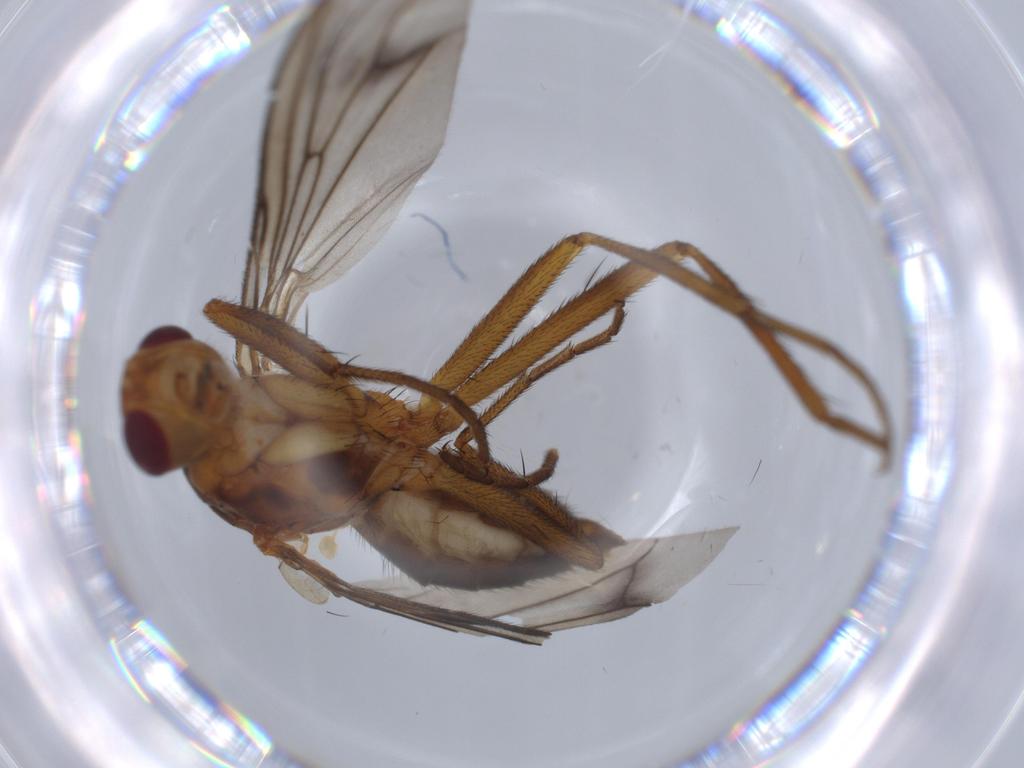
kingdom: Animalia
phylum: Arthropoda
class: Insecta
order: Diptera
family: Scathophagidae
